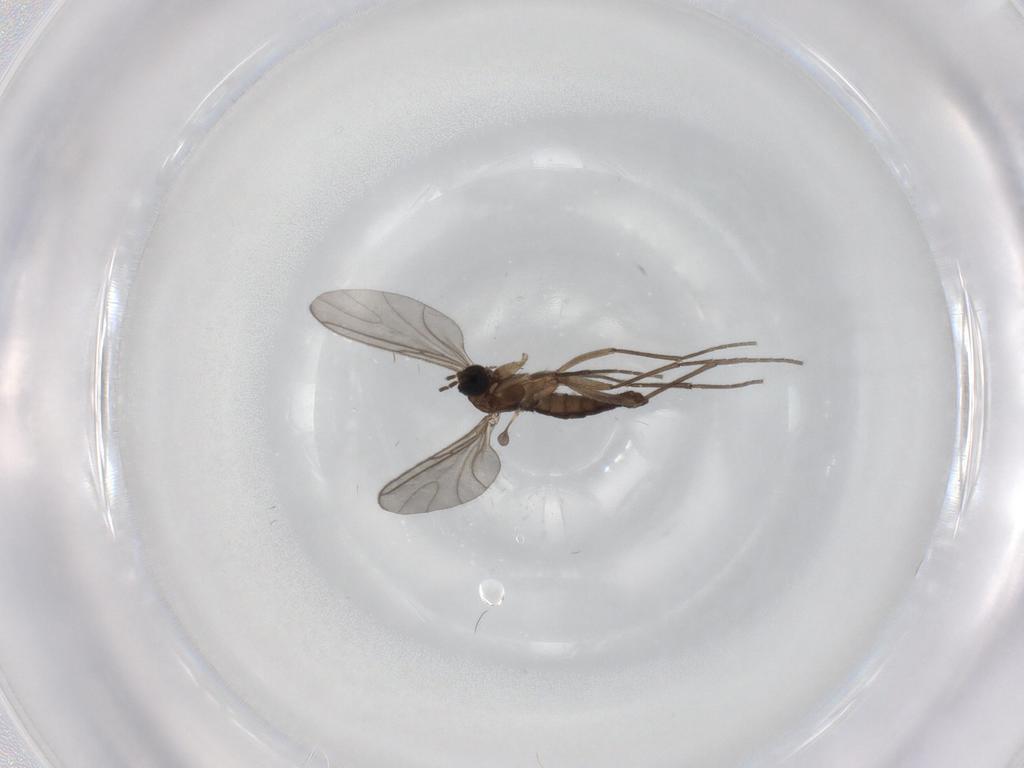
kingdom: Animalia
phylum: Arthropoda
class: Insecta
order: Diptera
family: Sciaridae
